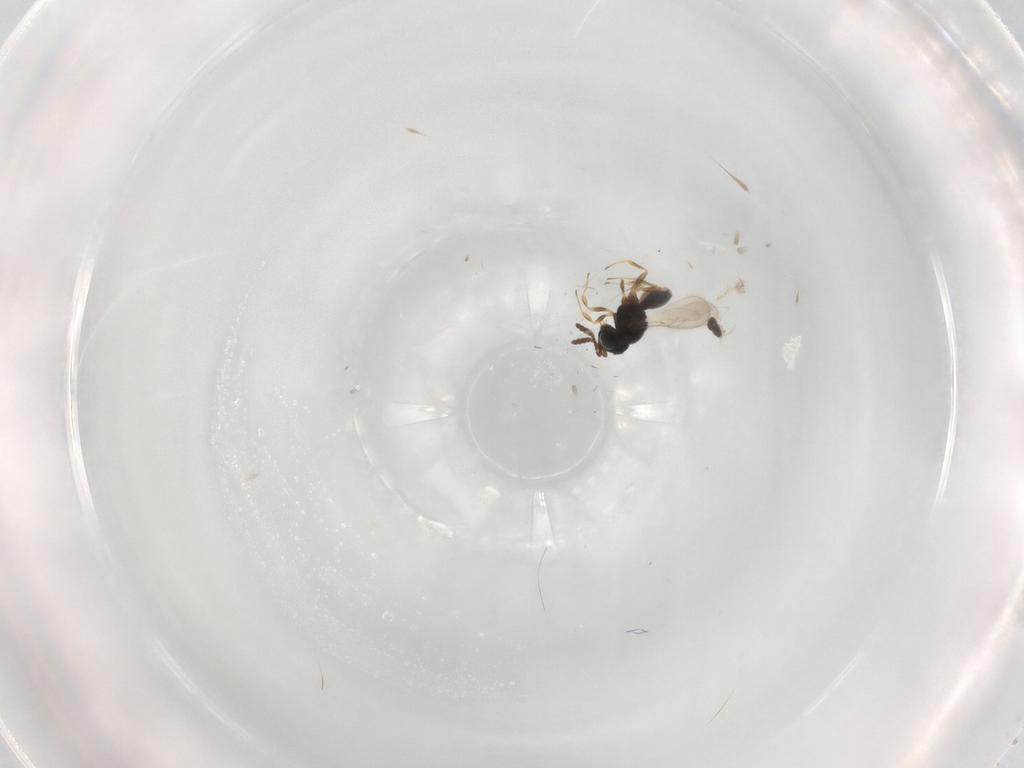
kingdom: Animalia
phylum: Arthropoda
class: Insecta
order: Hymenoptera
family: Scelionidae
